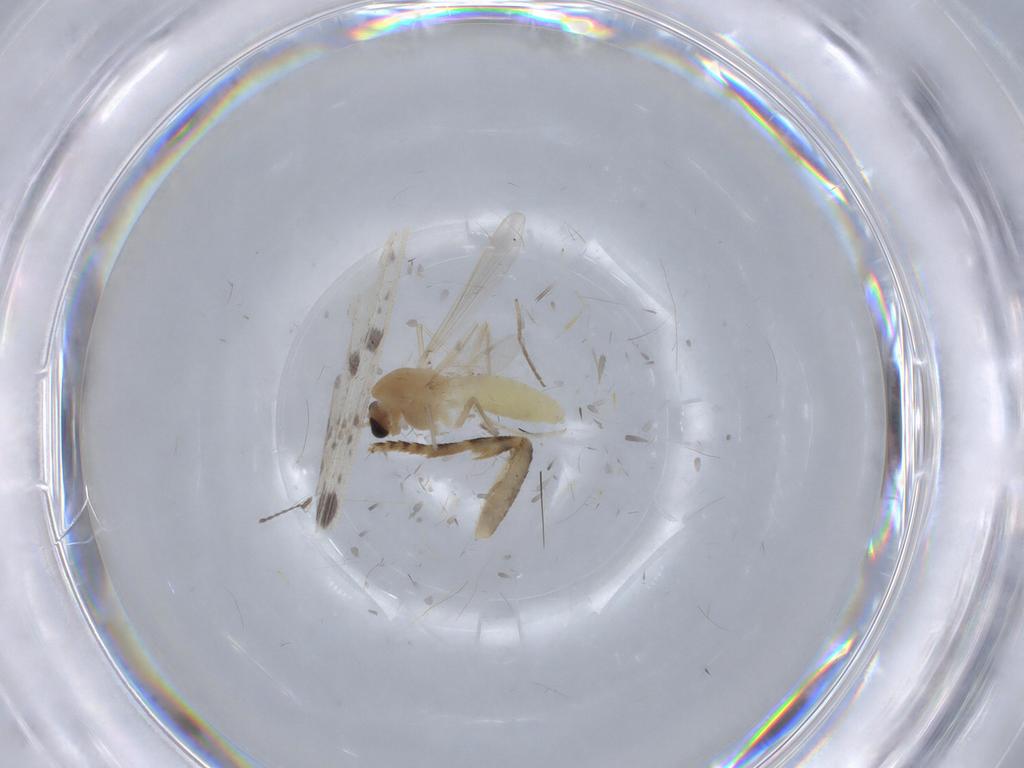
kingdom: Animalia
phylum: Arthropoda
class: Insecta
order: Diptera
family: Chironomidae
